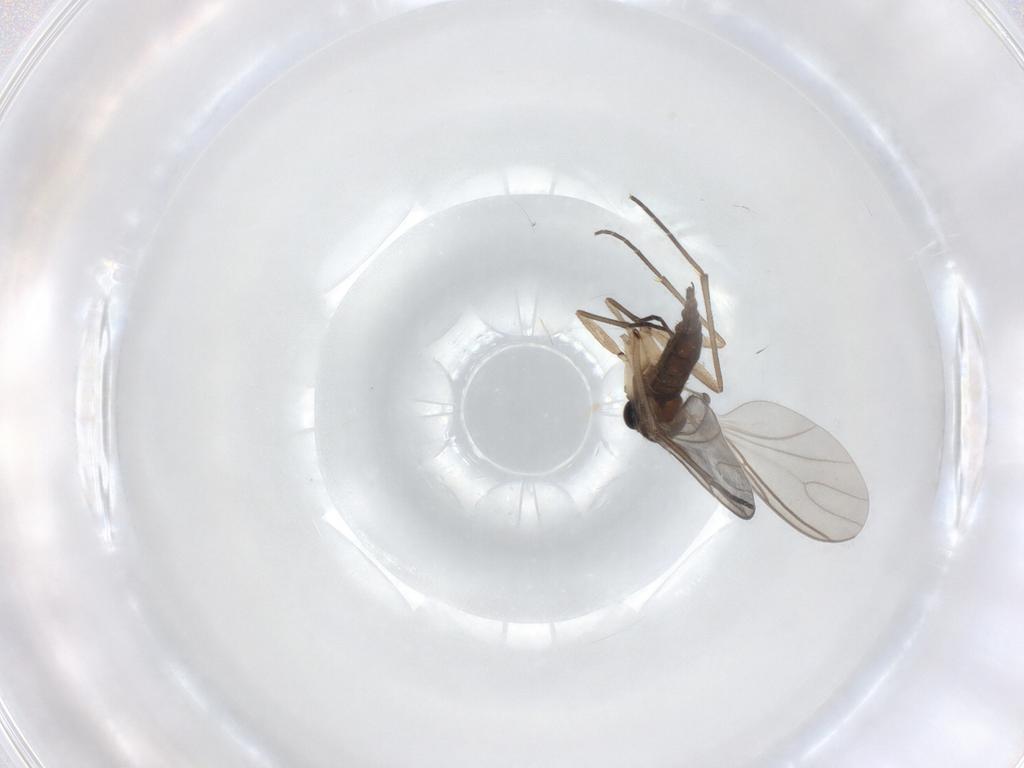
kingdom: Animalia
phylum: Arthropoda
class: Insecta
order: Diptera
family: Sciaridae
